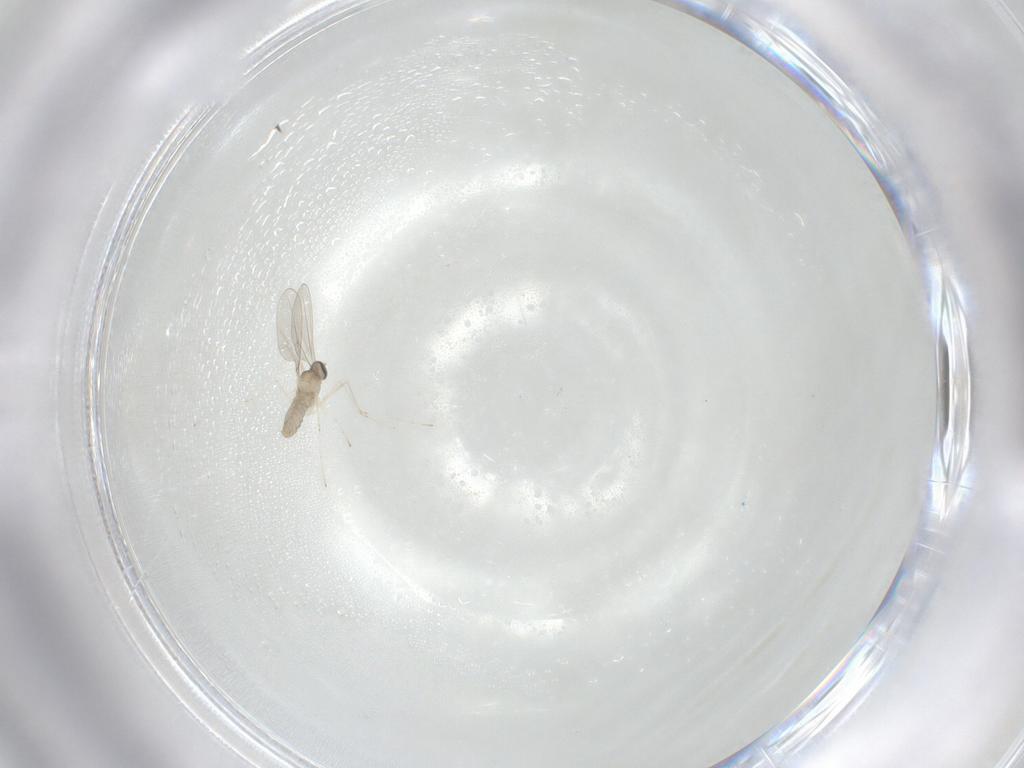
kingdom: Animalia
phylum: Arthropoda
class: Insecta
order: Diptera
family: Cecidomyiidae
